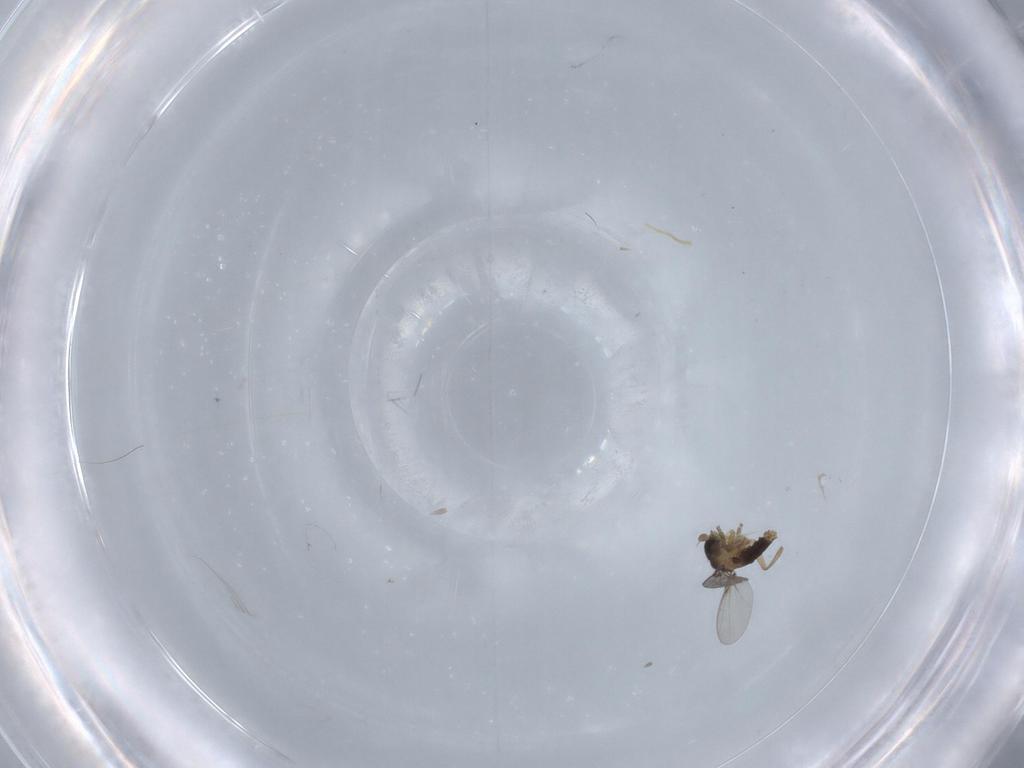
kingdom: Animalia
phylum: Arthropoda
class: Insecta
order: Diptera
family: Phoridae
